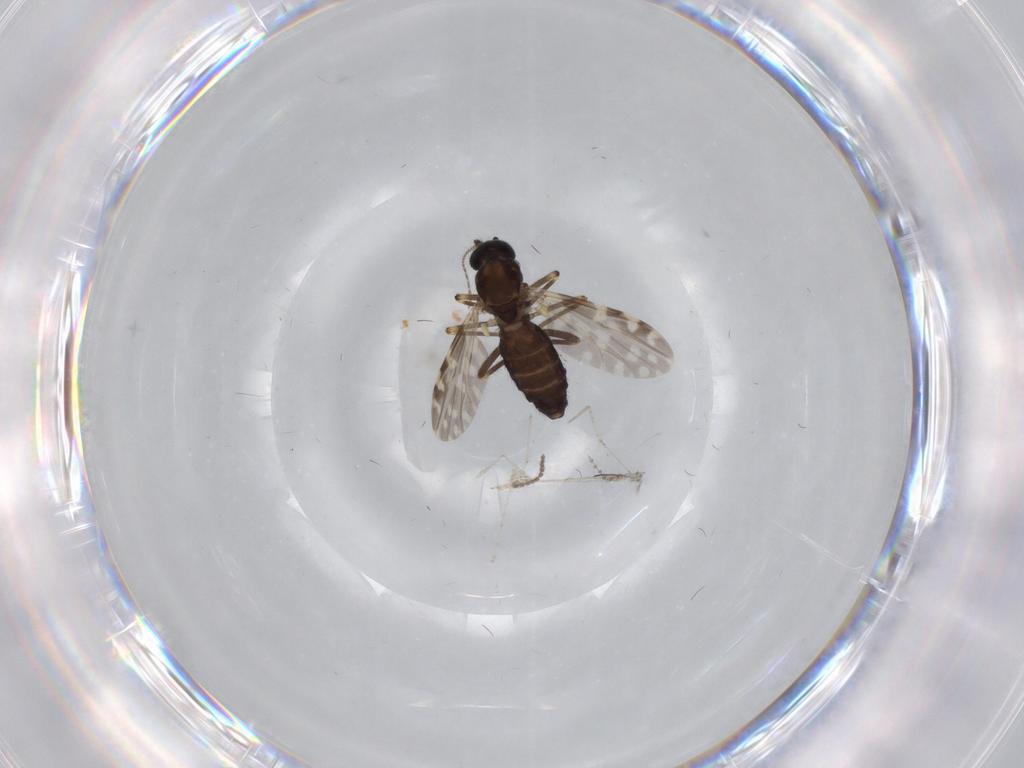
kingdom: Animalia
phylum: Arthropoda
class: Insecta
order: Diptera
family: Ceratopogonidae
